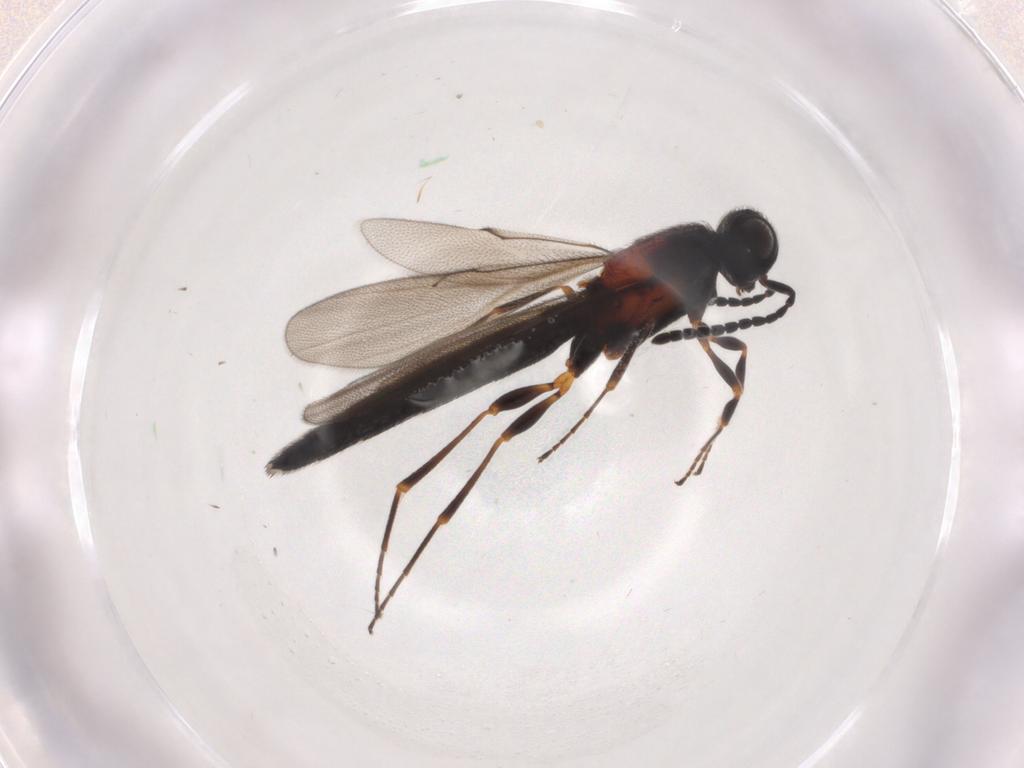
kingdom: Animalia
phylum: Arthropoda
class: Insecta
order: Hymenoptera
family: Scelionidae
